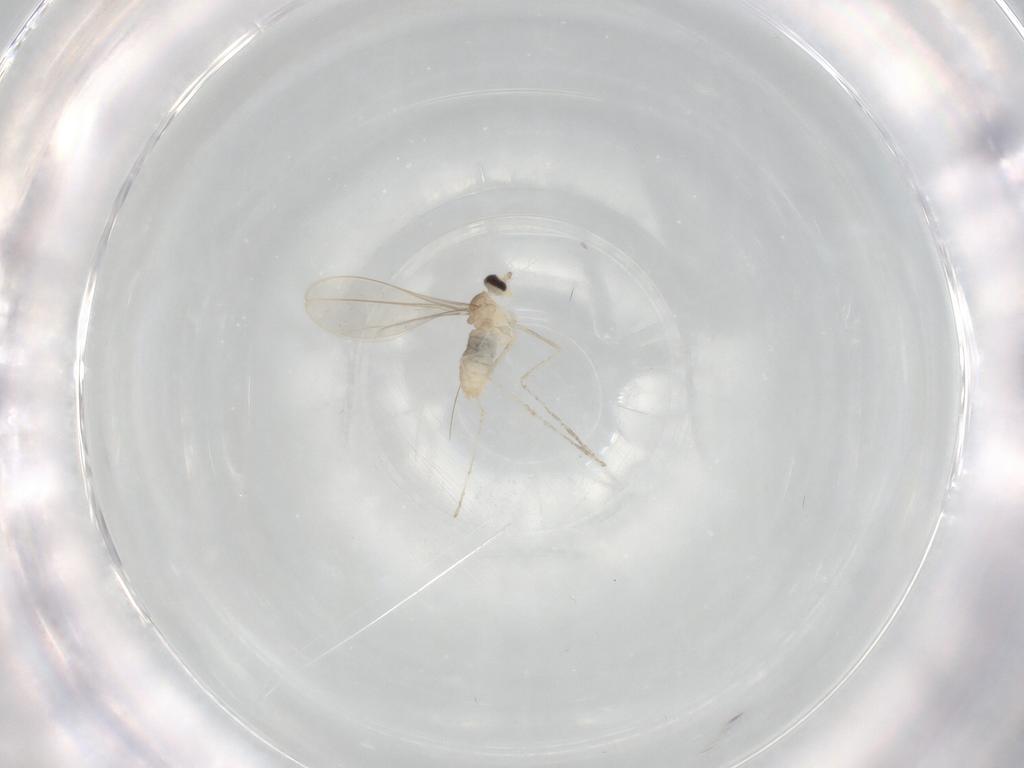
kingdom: Animalia
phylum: Arthropoda
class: Insecta
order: Diptera
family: Cecidomyiidae
